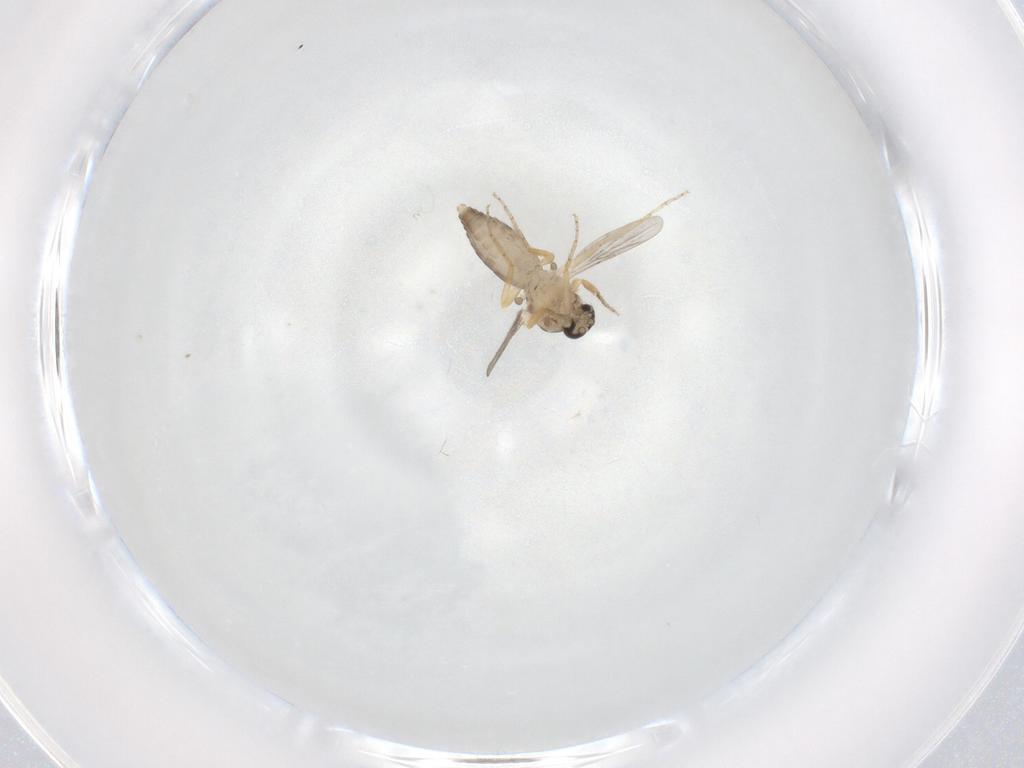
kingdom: Animalia
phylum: Arthropoda
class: Insecta
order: Diptera
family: Ceratopogonidae
